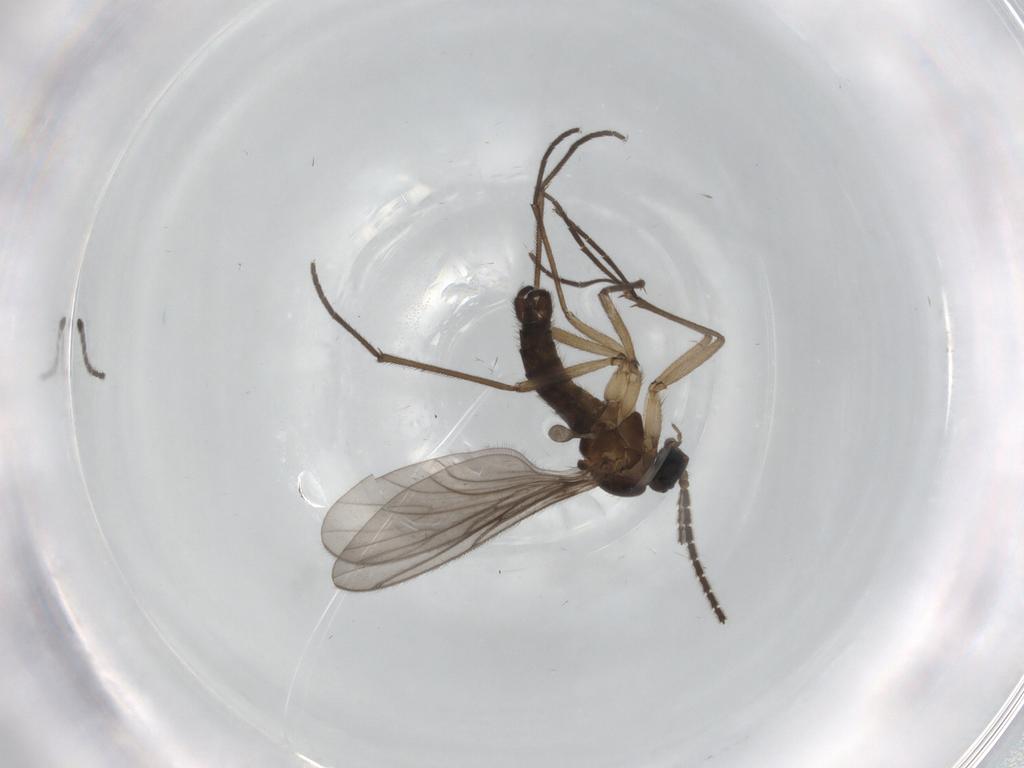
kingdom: Animalia
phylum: Arthropoda
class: Insecta
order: Diptera
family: Sciaridae
